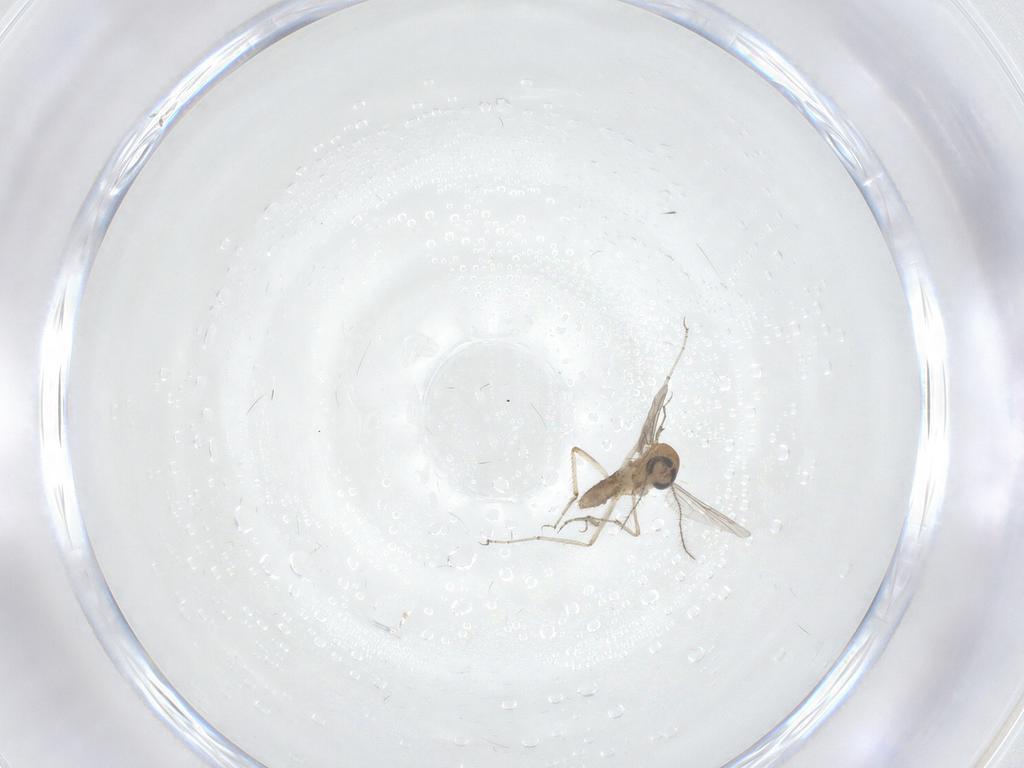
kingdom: Animalia
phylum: Arthropoda
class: Insecta
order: Diptera
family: Ceratopogonidae
